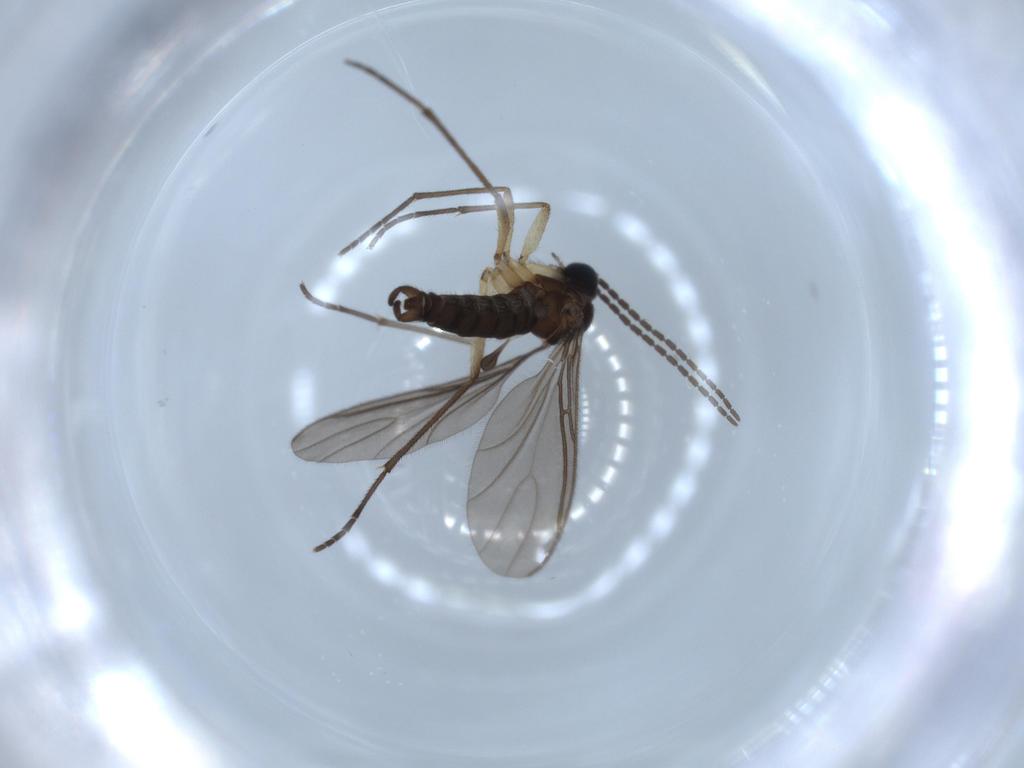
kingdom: Animalia
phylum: Arthropoda
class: Insecta
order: Diptera
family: Sciaridae
